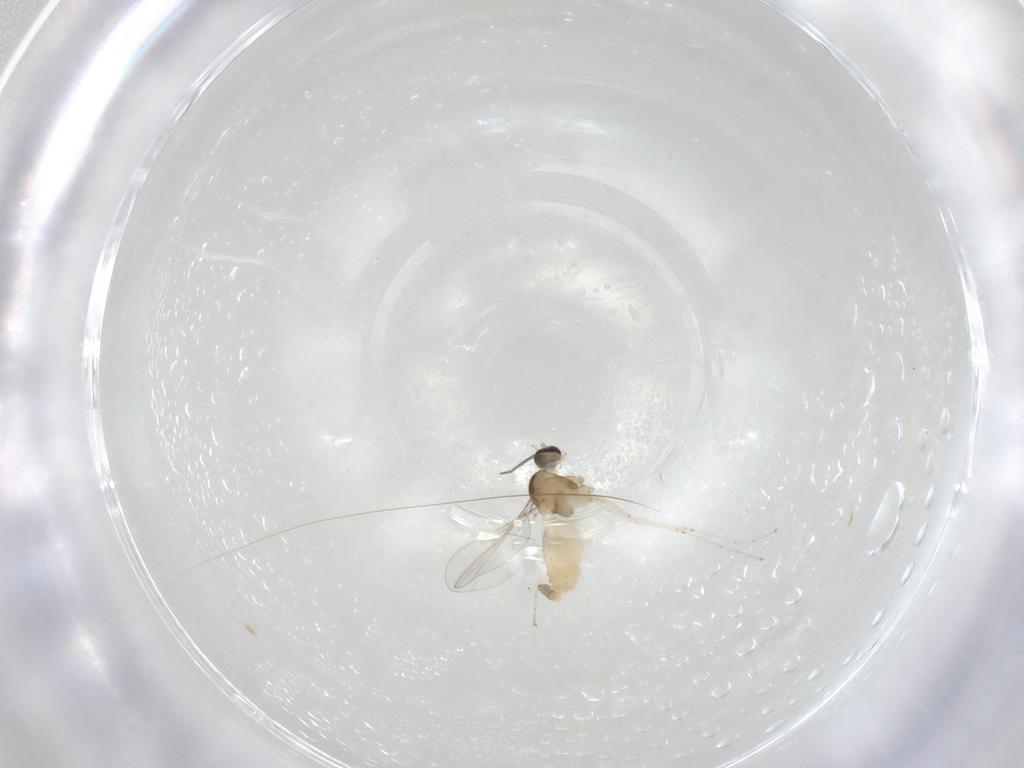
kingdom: Animalia
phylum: Arthropoda
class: Insecta
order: Diptera
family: Cecidomyiidae
